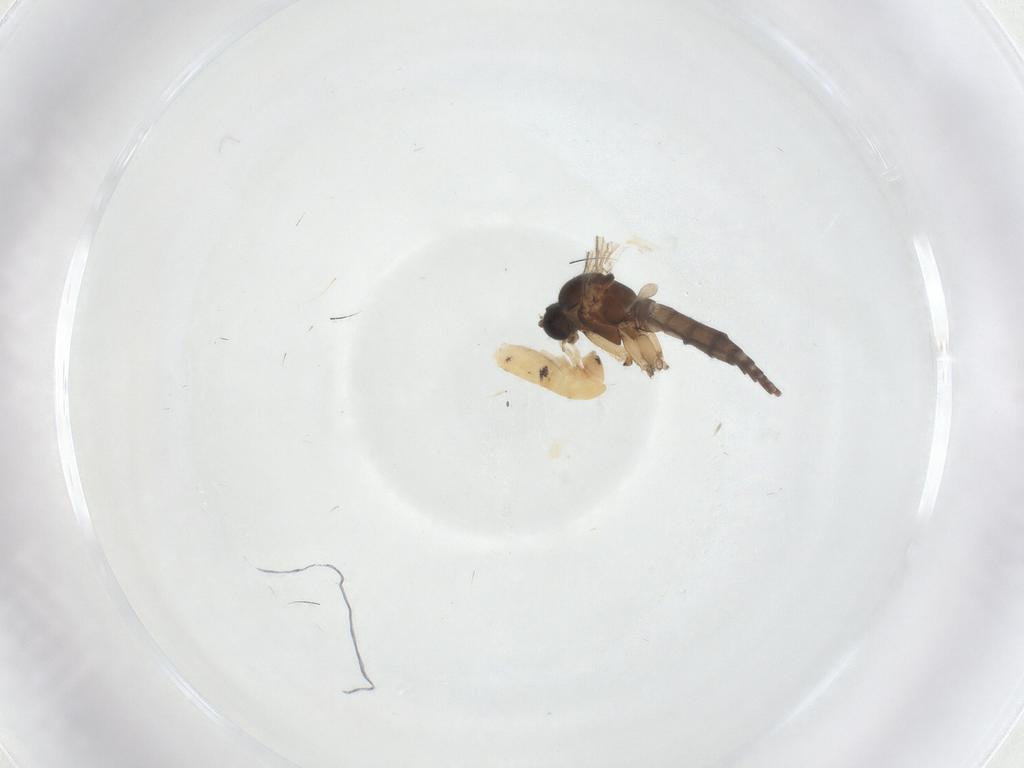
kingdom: Animalia
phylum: Arthropoda
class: Insecta
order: Diptera
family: Sciaridae
